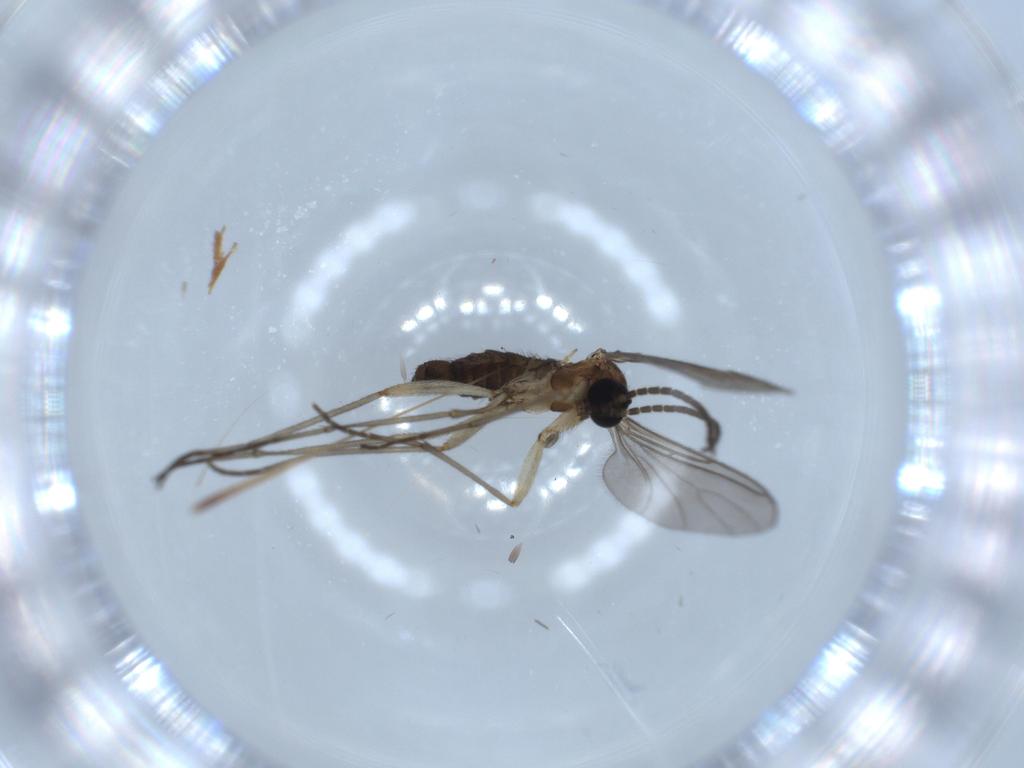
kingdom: Animalia
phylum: Arthropoda
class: Insecta
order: Diptera
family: Sciaridae
